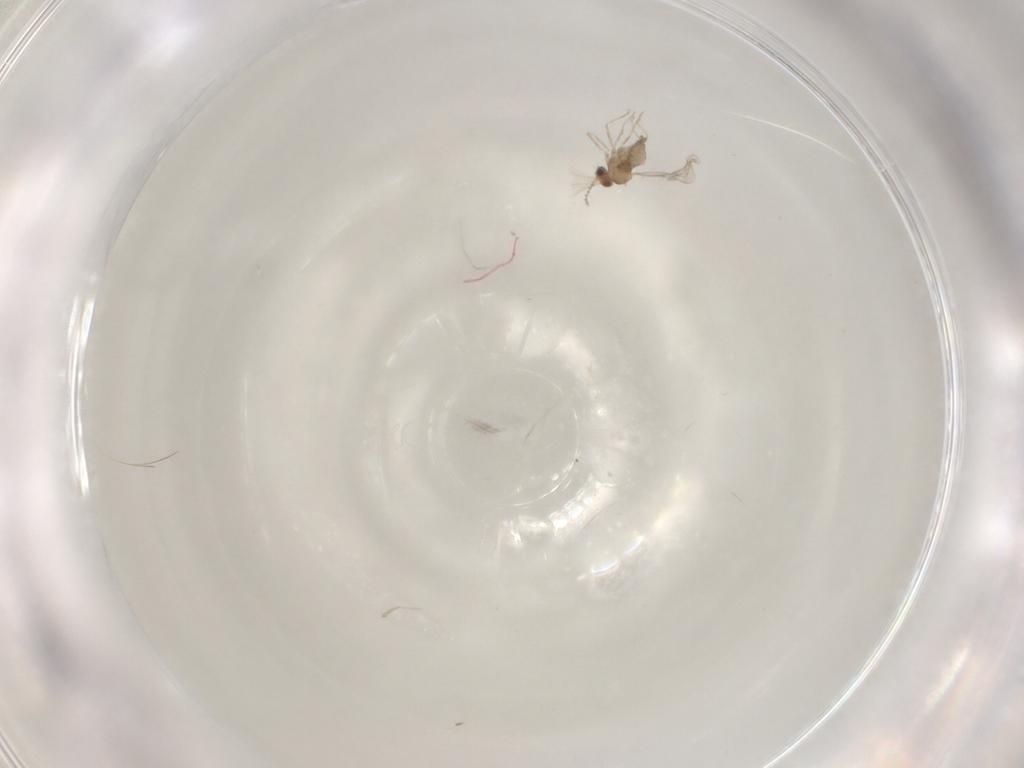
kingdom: Animalia
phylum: Arthropoda
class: Insecta
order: Diptera
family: Cecidomyiidae
